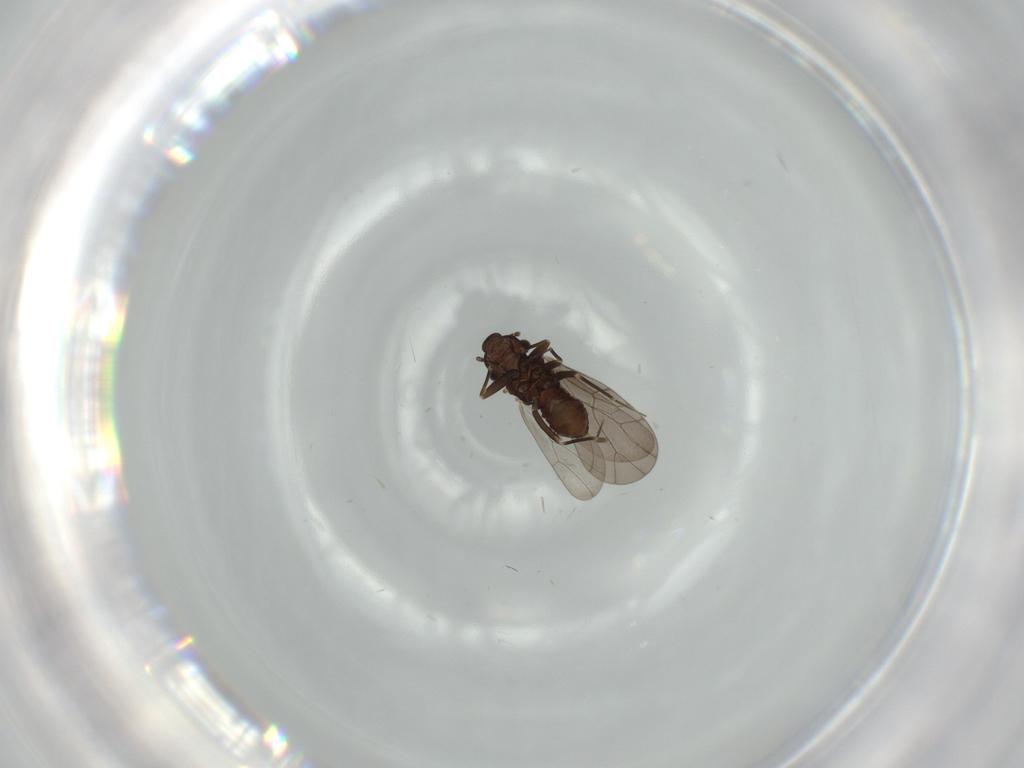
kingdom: Animalia
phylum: Arthropoda
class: Insecta
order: Psocodea
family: Lepidopsocidae
